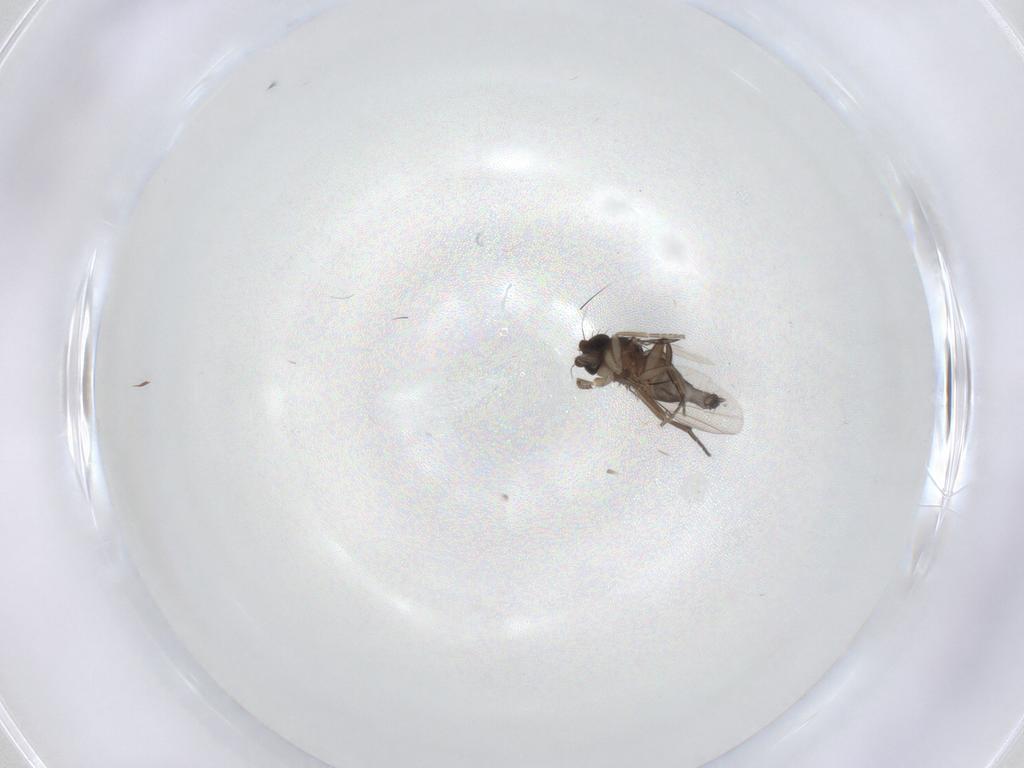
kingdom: Animalia
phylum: Arthropoda
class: Insecta
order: Diptera
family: Phoridae
